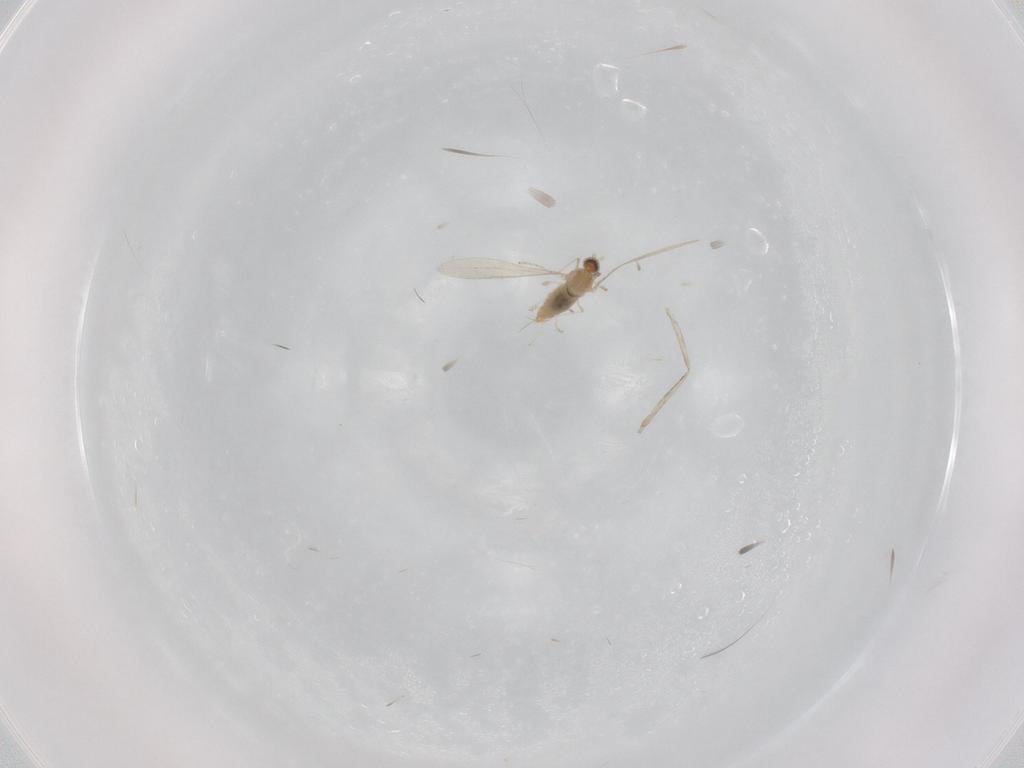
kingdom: Animalia
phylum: Arthropoda
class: Insecta
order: Diptera
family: Cecidomyiidae
